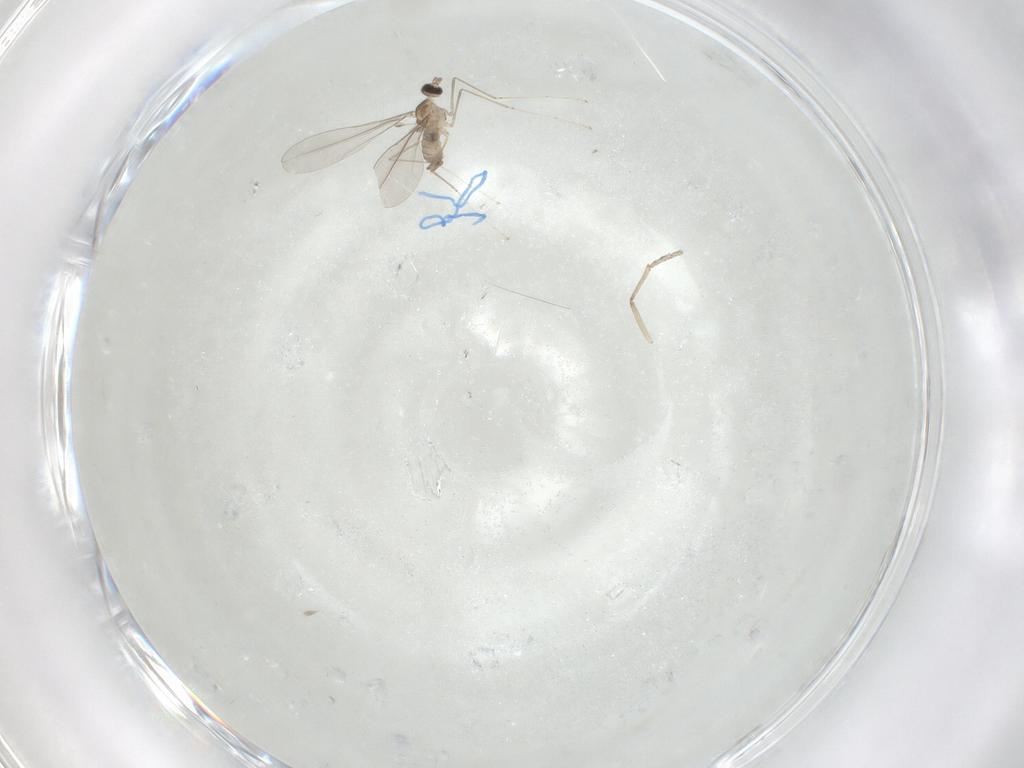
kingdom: Animalia
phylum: Arthropoda
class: Insecta
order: Diptera
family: Cecidomyiidae
